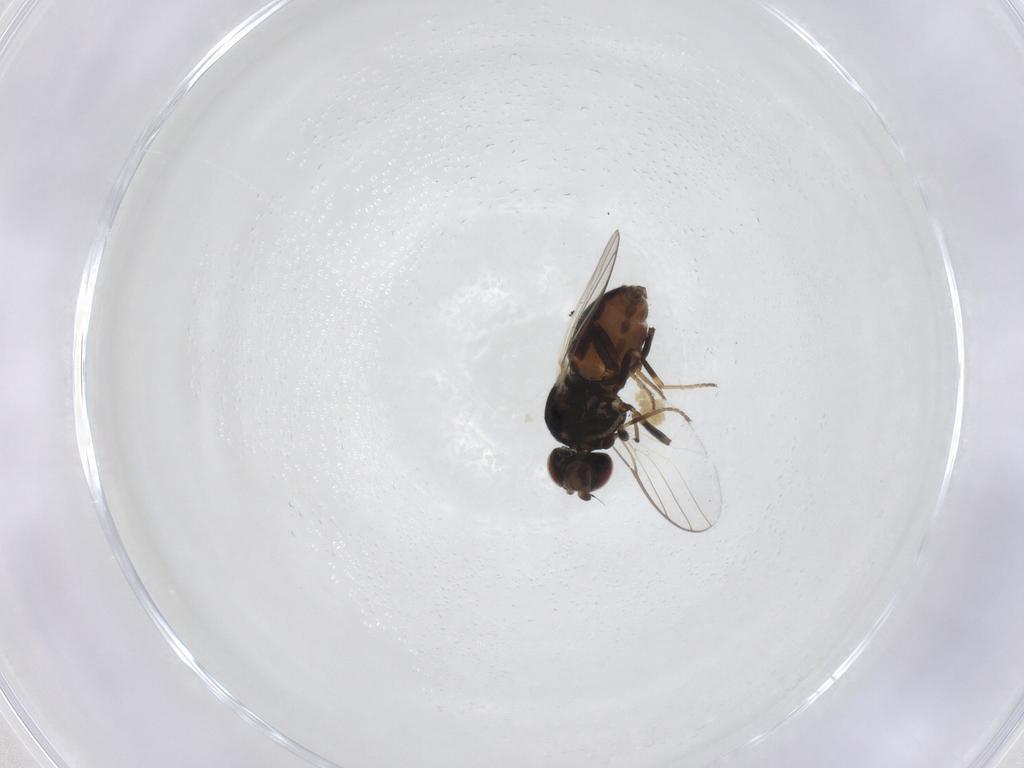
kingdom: Animalia
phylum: Arthropoda
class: Insecta
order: Diptera
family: Chloropidae
